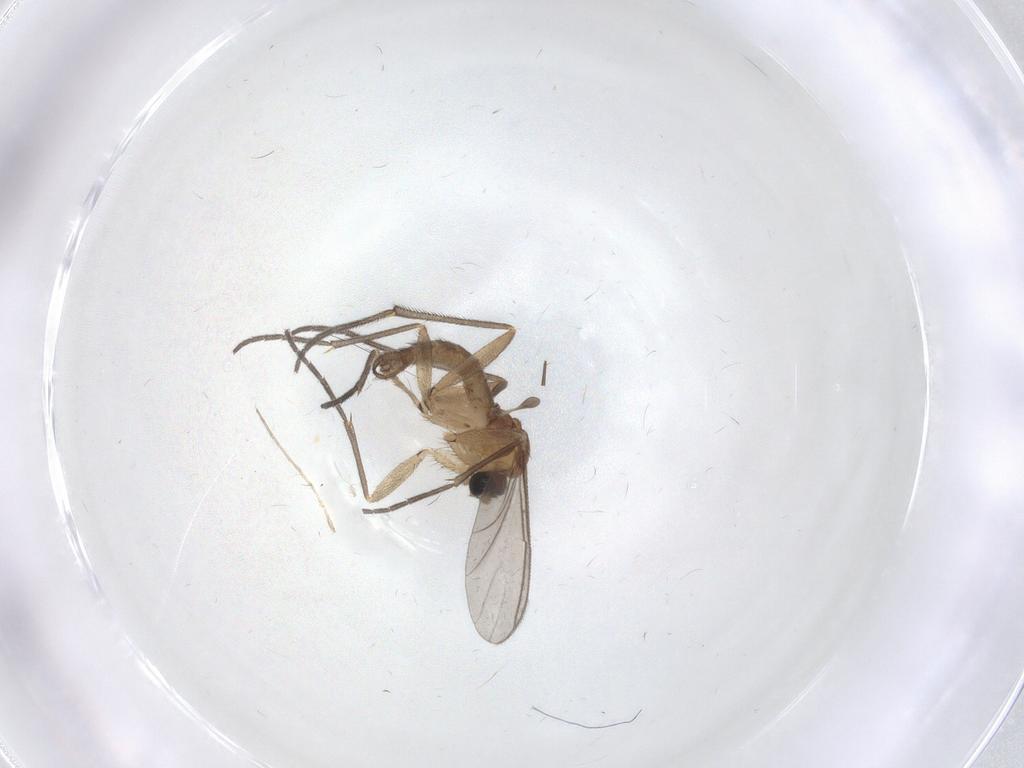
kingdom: Animalia
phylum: Arthropoda
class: Insecta
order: Diptera
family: Sciaridae
